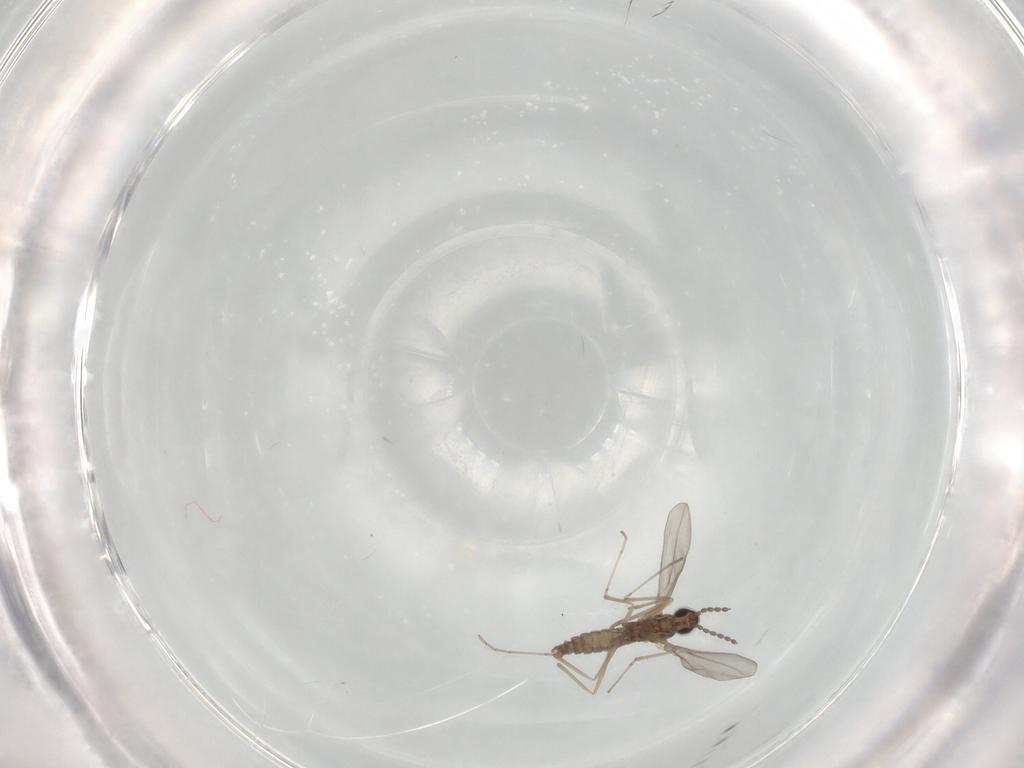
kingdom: Animalia
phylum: Arthropoda
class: Insecta
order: Diptera
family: Cecidomyiidae
